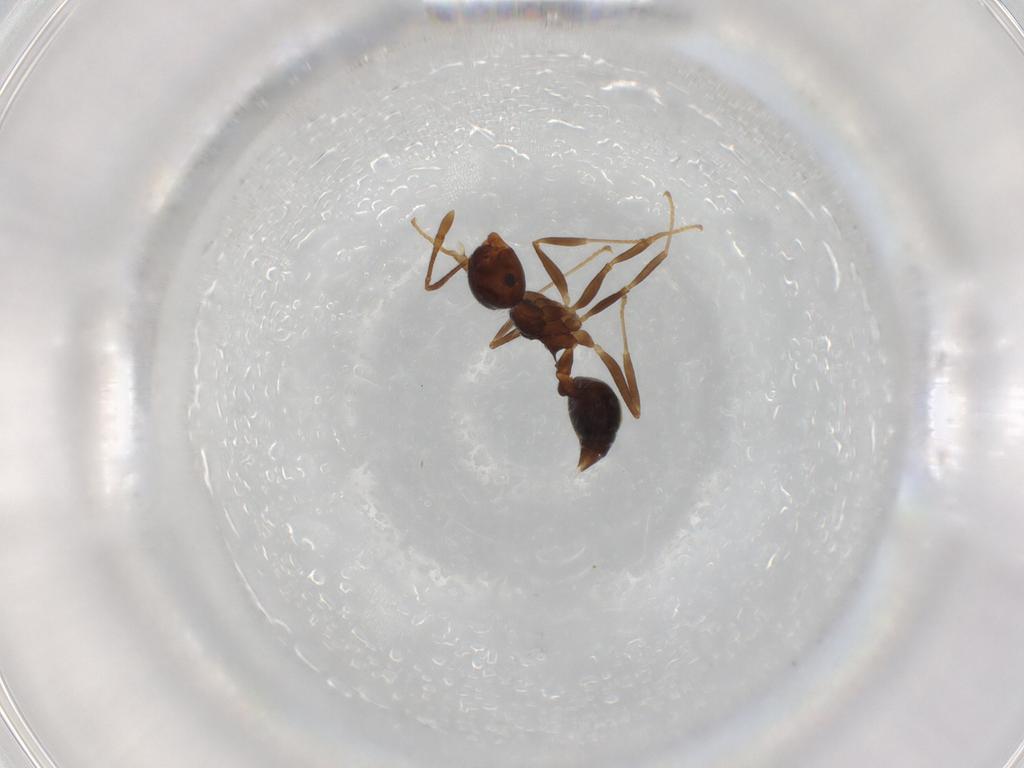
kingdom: Animalia
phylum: Arthropoda
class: Insecta
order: Hymenoptera
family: Formicidae
